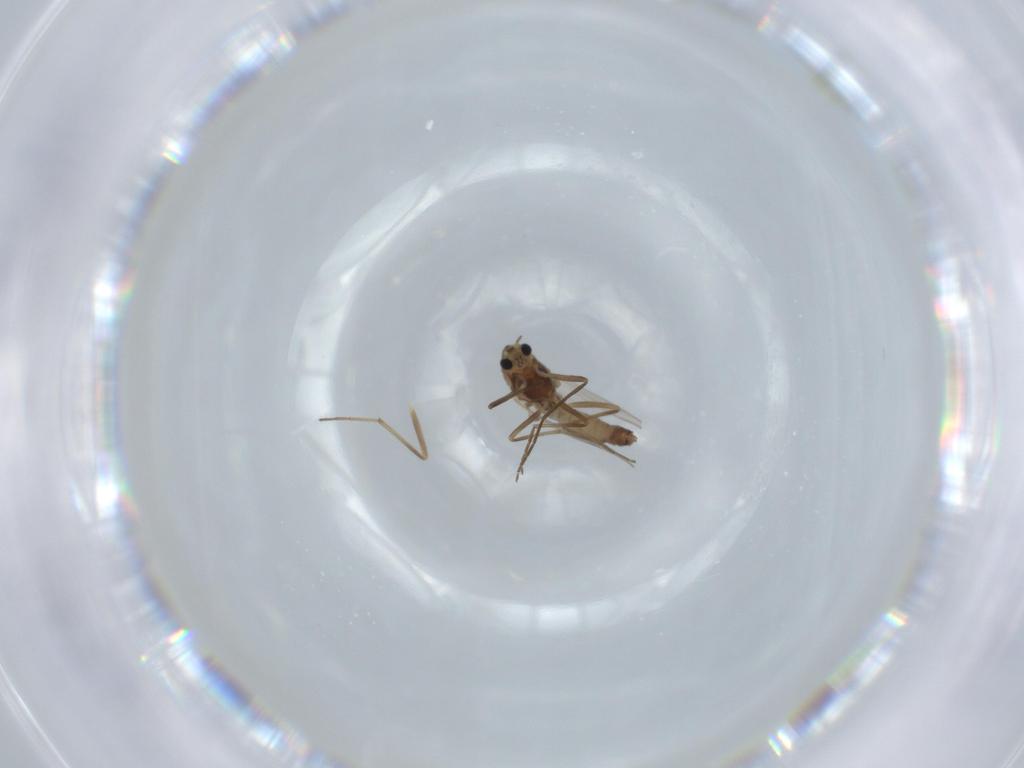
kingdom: Animalia
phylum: Arthropoda
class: Insecta
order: Diptera
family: Chironomidae
